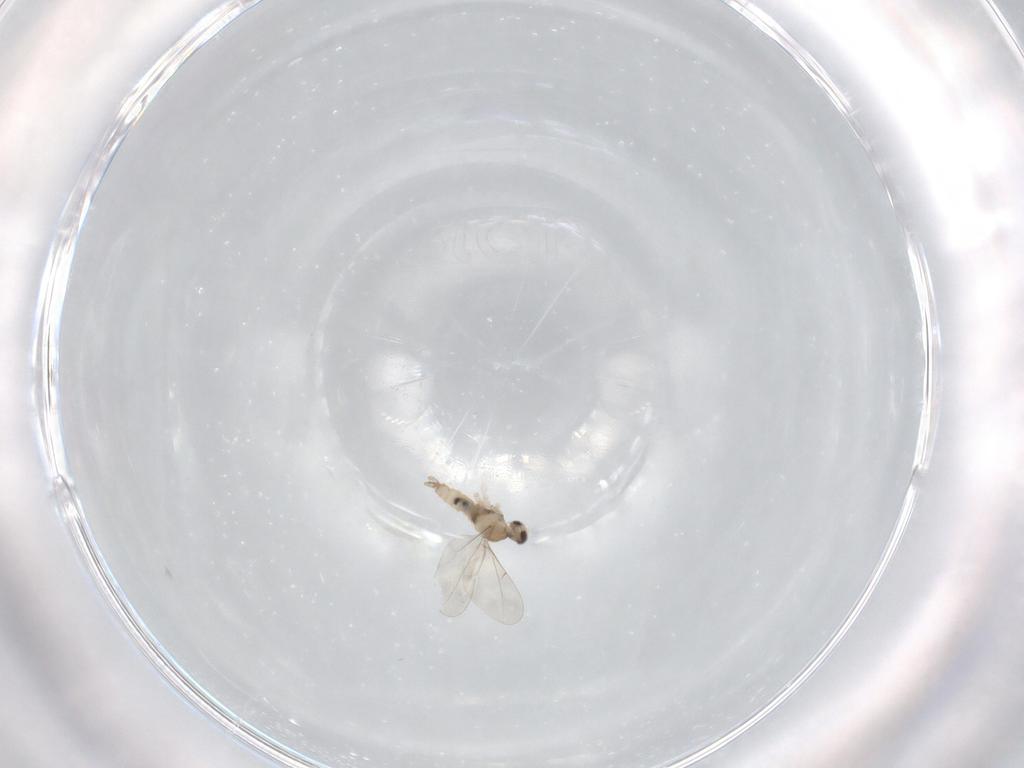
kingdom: Animalia
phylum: Arthropoda
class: Insecta
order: Diptera
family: Cecidomyiidae
